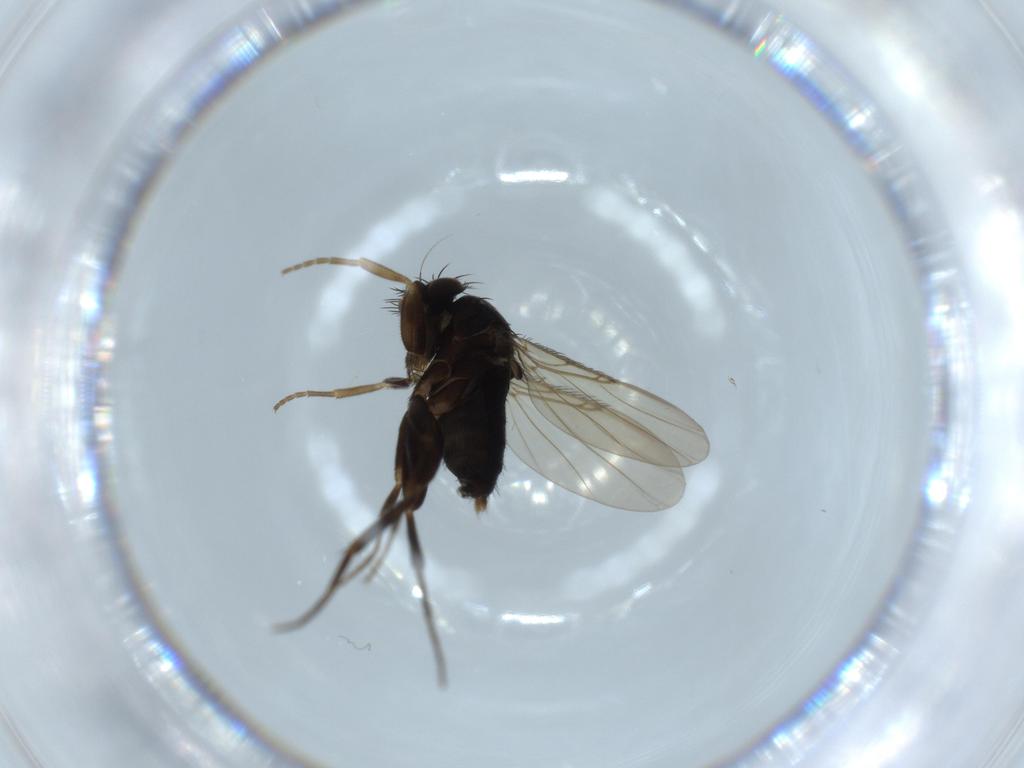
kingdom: Animalia
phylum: Arthropoda
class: Insecta
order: Diptera
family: Phoridae
